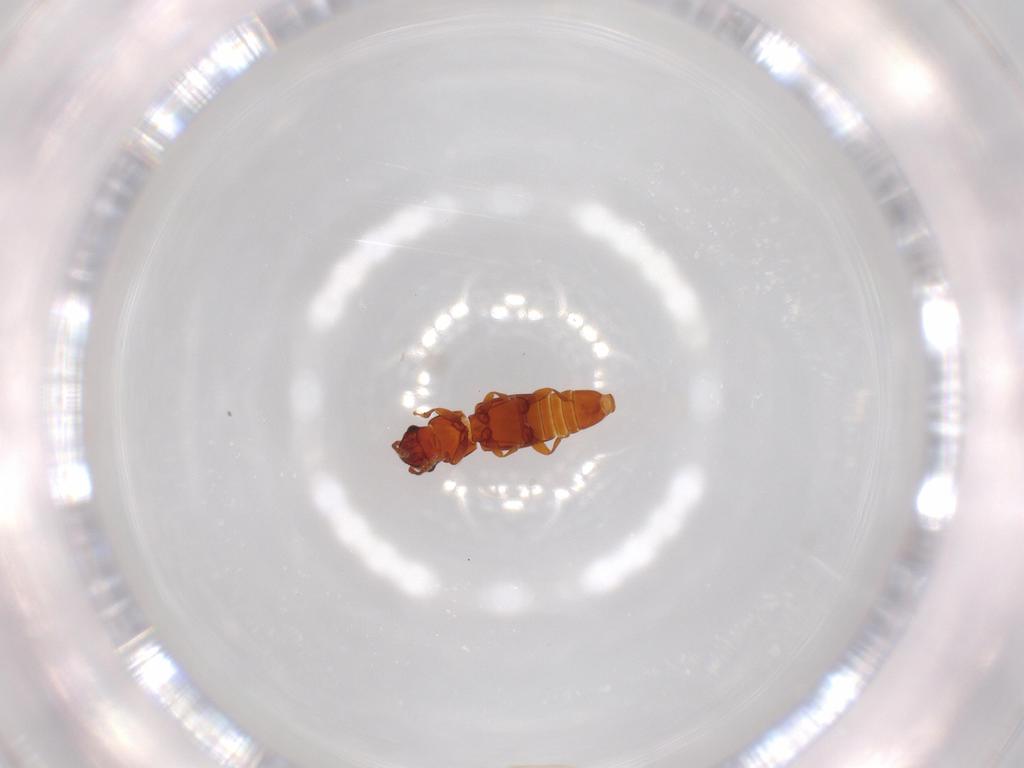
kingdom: Animalia
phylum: Arthropoda
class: Insecta
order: Coleoptera
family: Smicripidae
